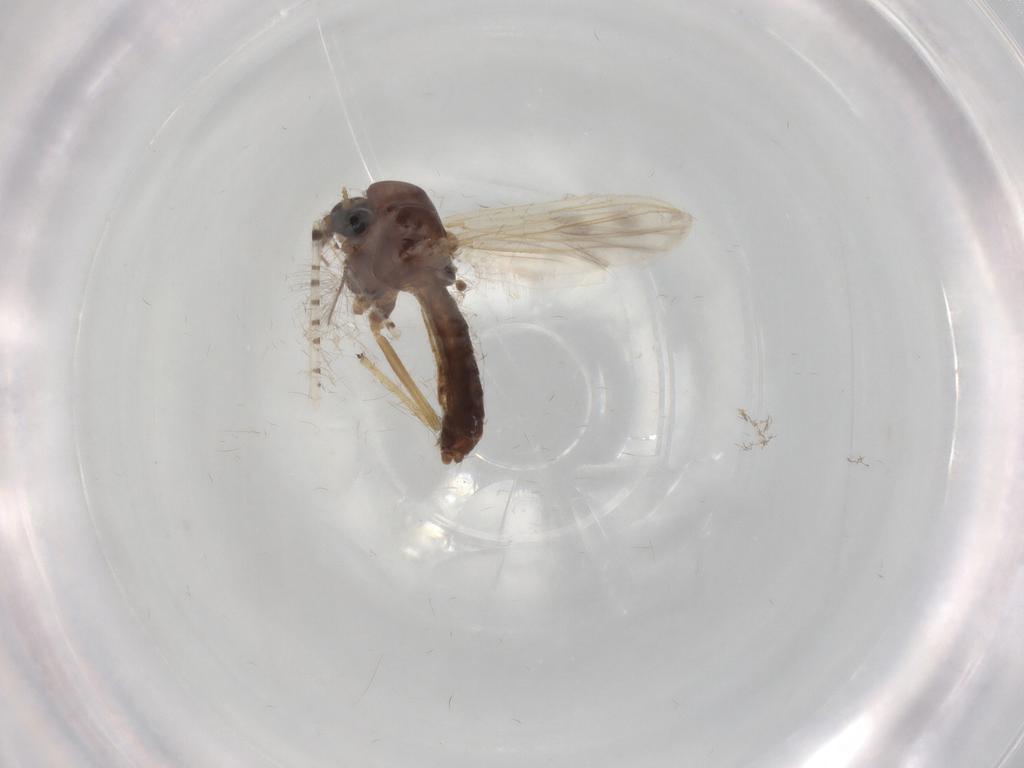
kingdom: Animalia
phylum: Arthropoda
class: Insecta
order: Diptera
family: Chironomidae
